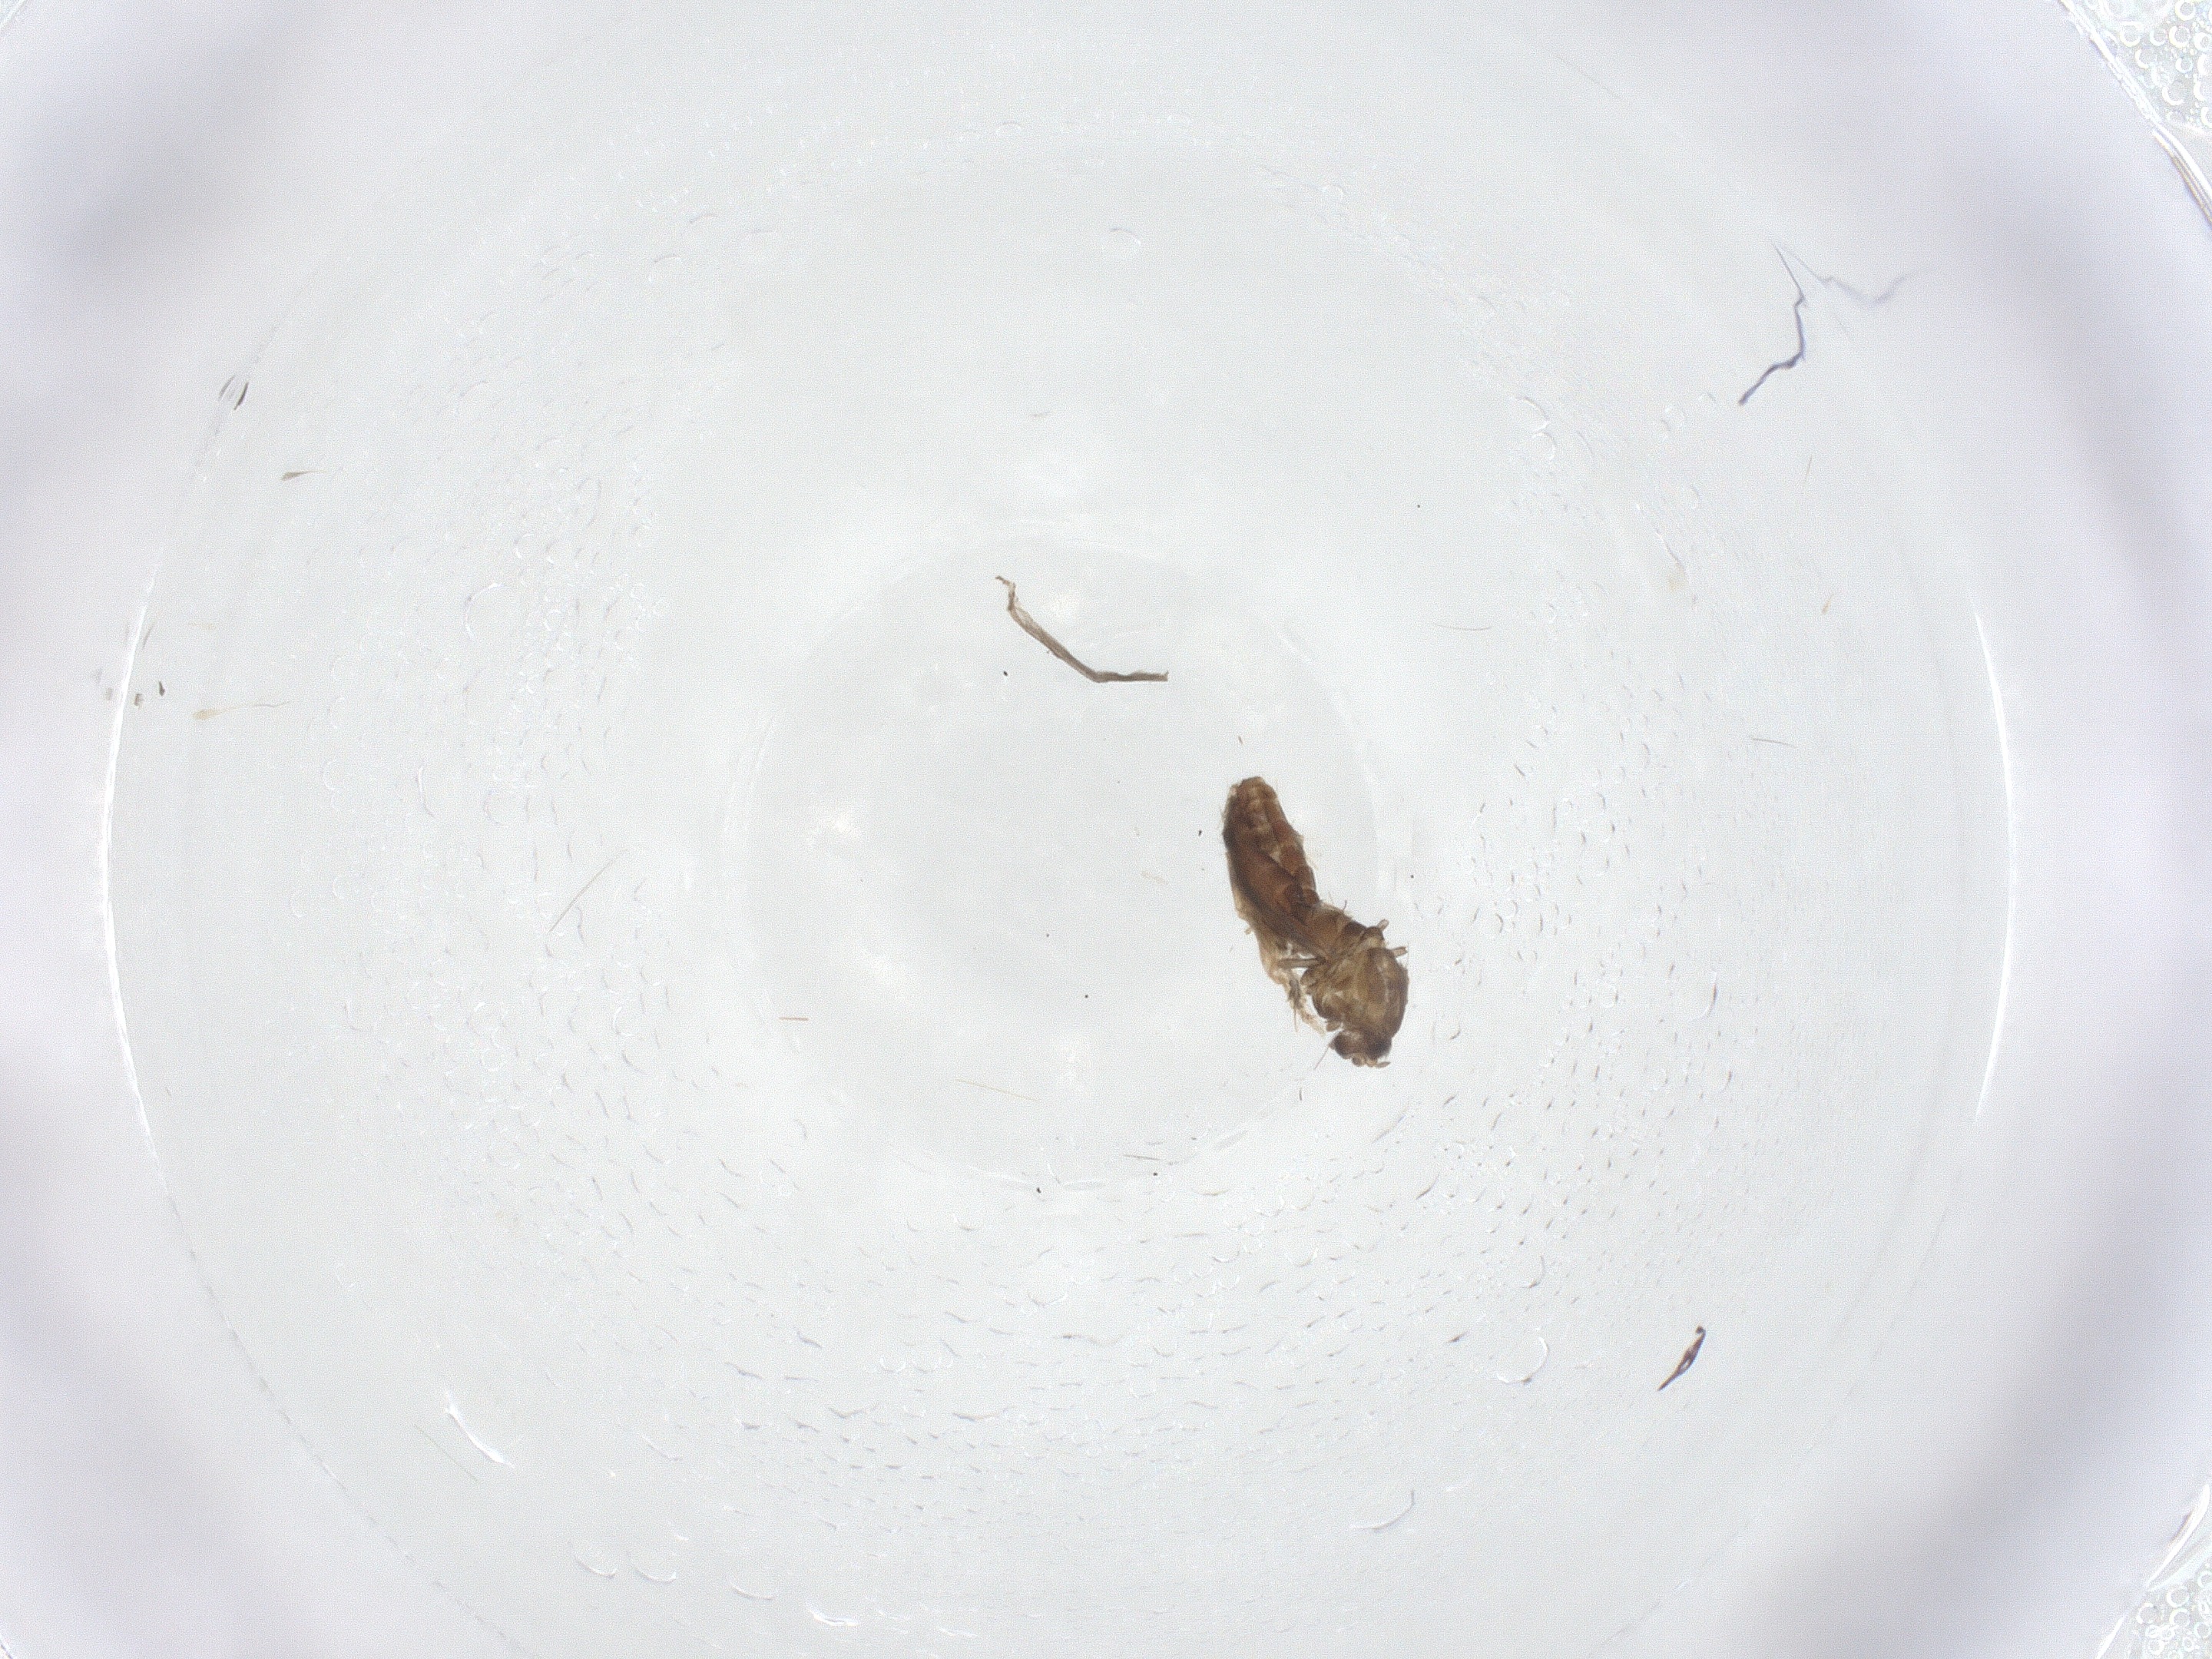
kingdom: Animalia
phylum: Arthropoda
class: Insecta
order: Diptera
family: Ceratopogonidae
